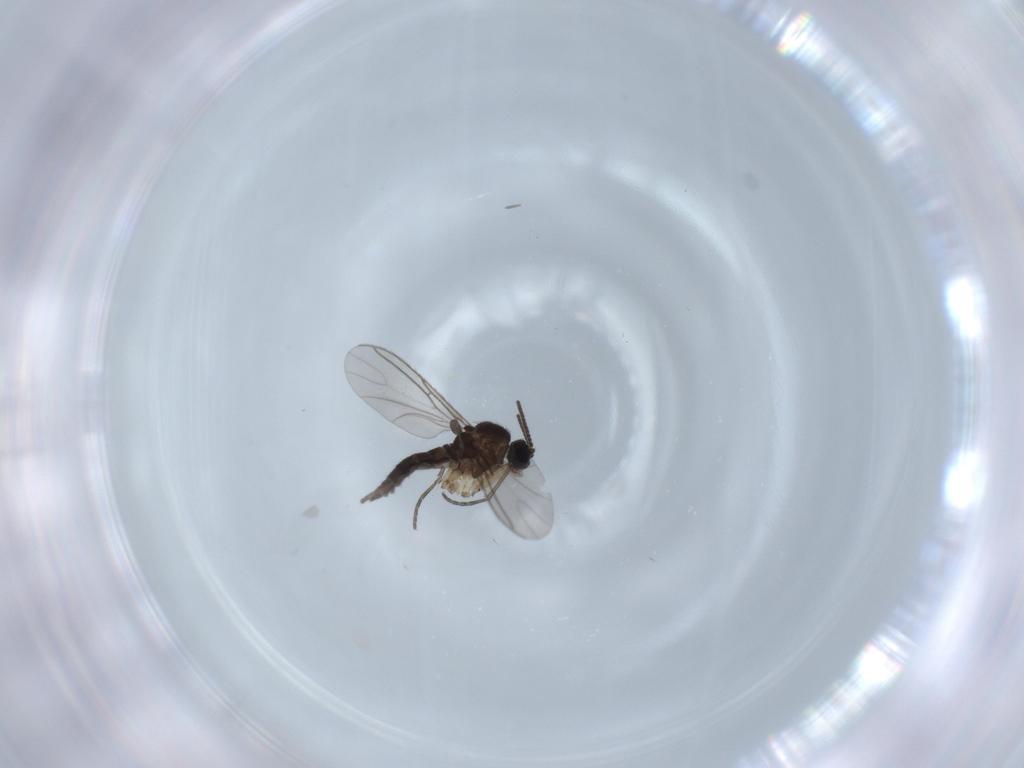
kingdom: Animalia
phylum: Arthropoda
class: Insecta
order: Diptera
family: Sciaridae
